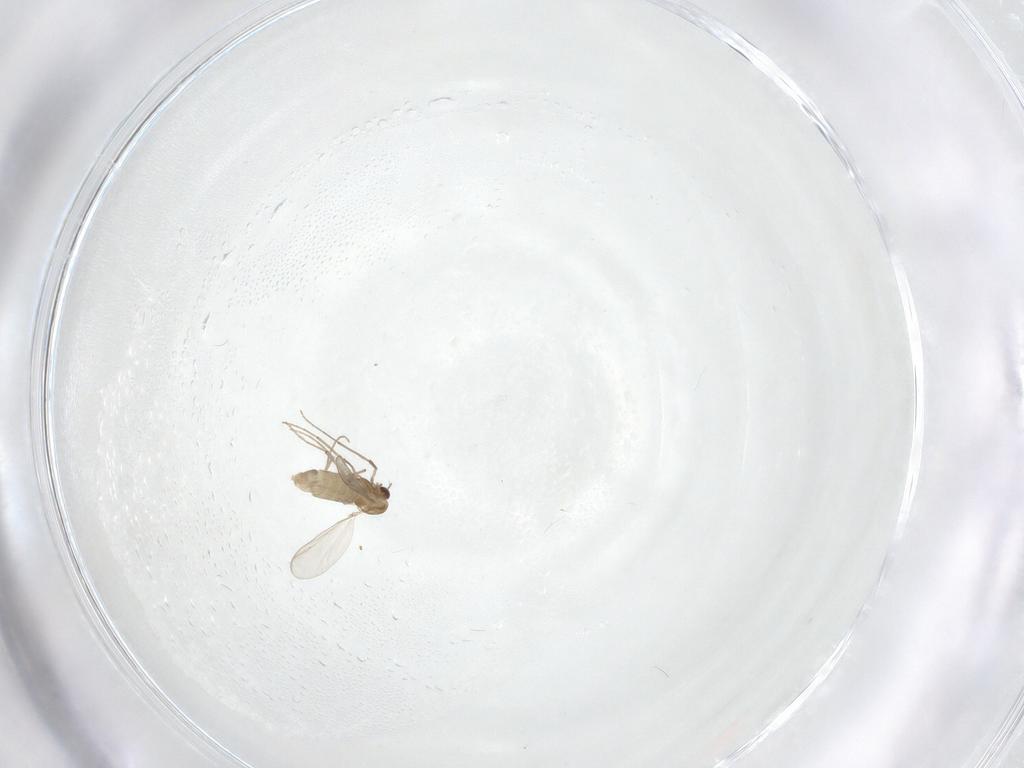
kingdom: Animalia
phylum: Arthropoda
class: Insecta
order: Diptera
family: Chironomidae
